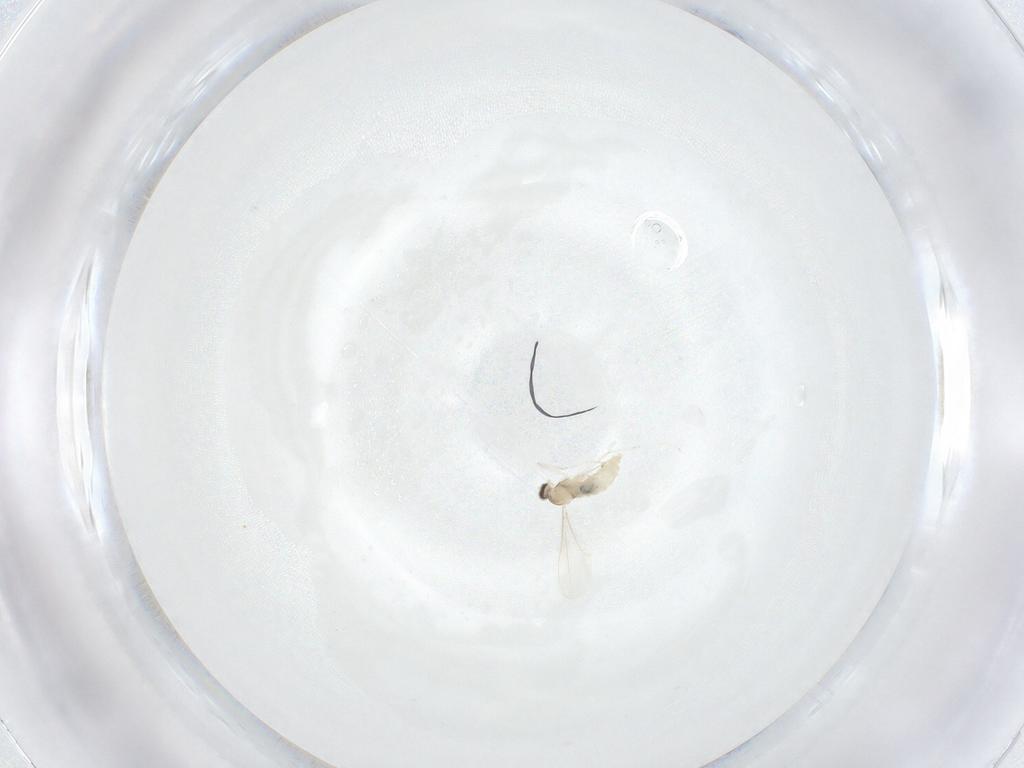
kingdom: Animalia
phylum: Arthropoda
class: Insecta
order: Diptera
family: Cecidomyiidae
